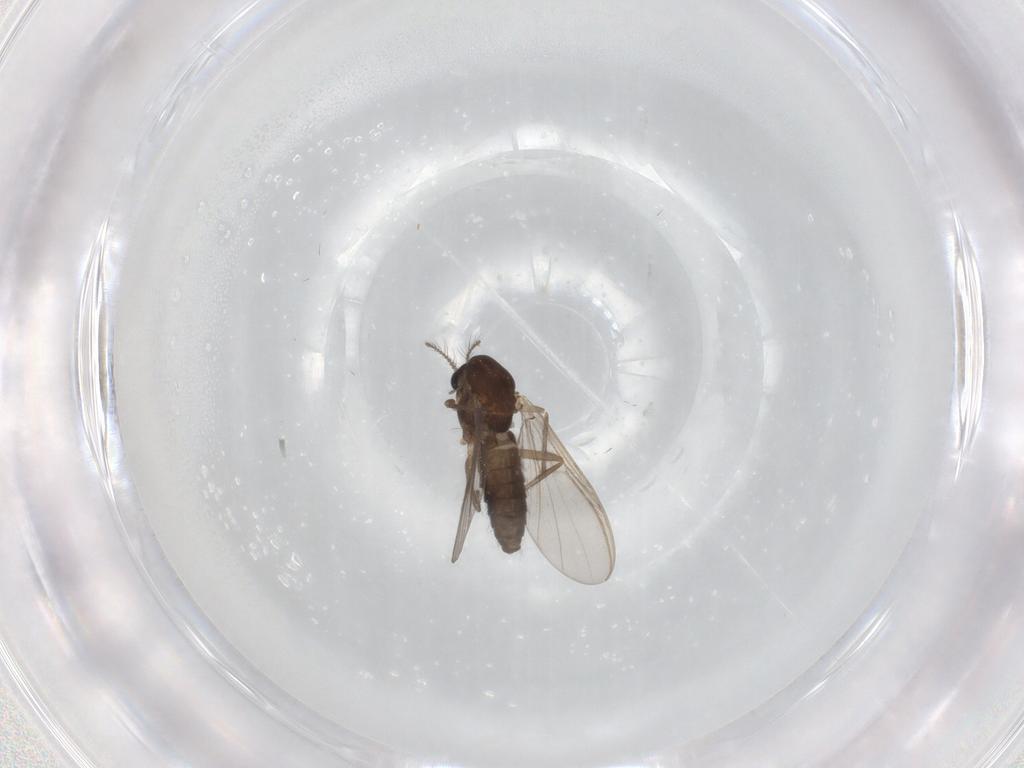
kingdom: Animalia
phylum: Arthropoda
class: Insecta
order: Diptera
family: Chironomidae
